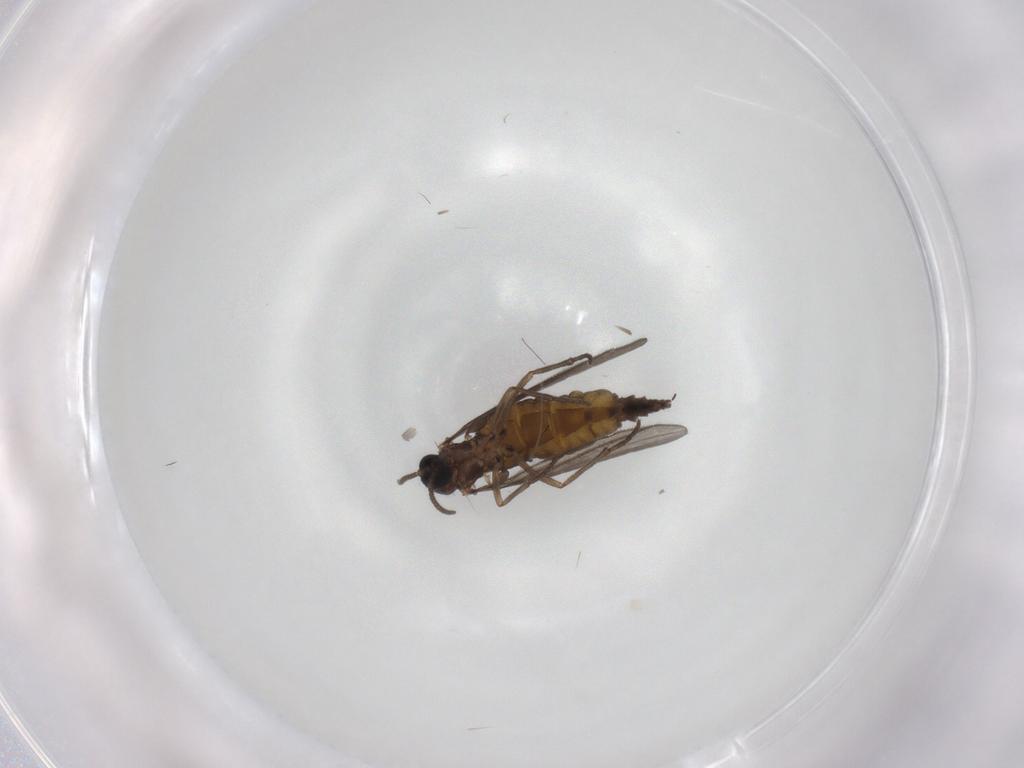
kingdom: Animalia
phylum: Arthropoda
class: Insecta
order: Diptera
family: Sciaridae
